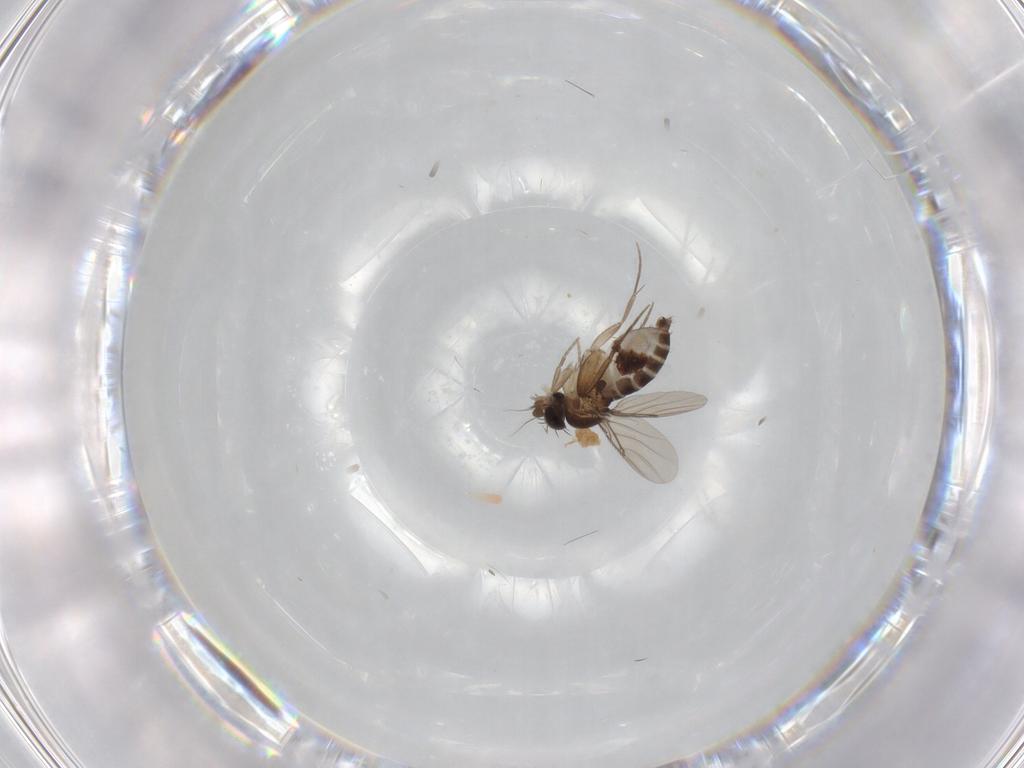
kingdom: Animalia
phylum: Arthropoda
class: Insecta
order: Diptera
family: Phoridae
